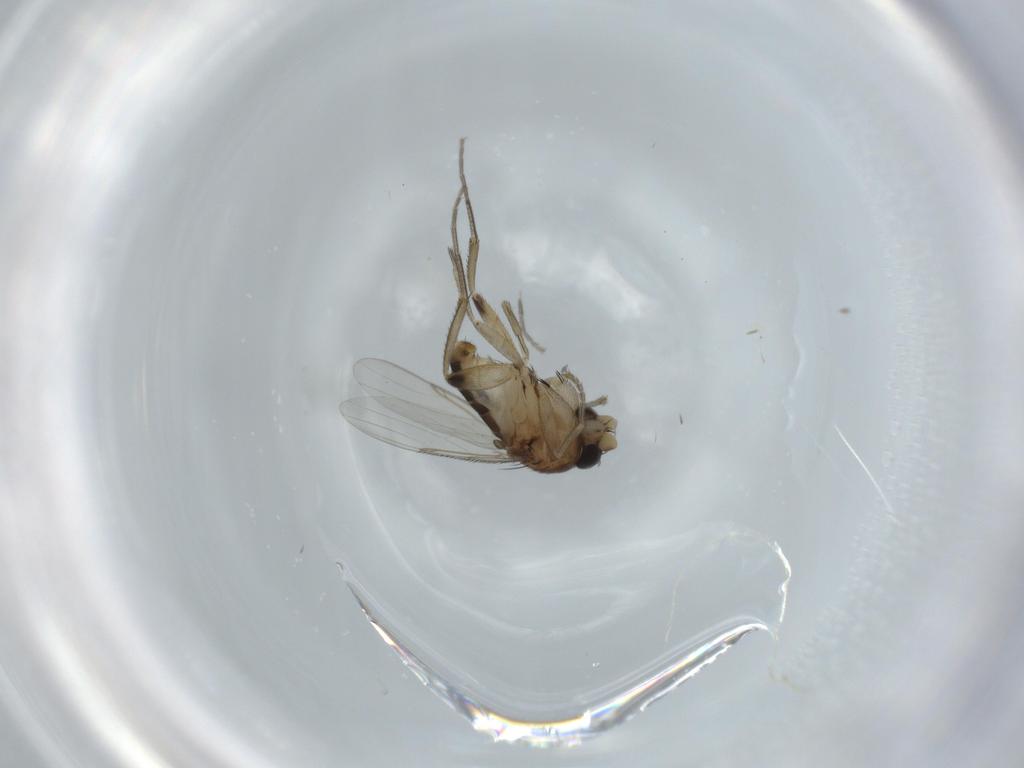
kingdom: Animalia
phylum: Arthropoda
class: Insecta
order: Diptera
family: Phoridae
